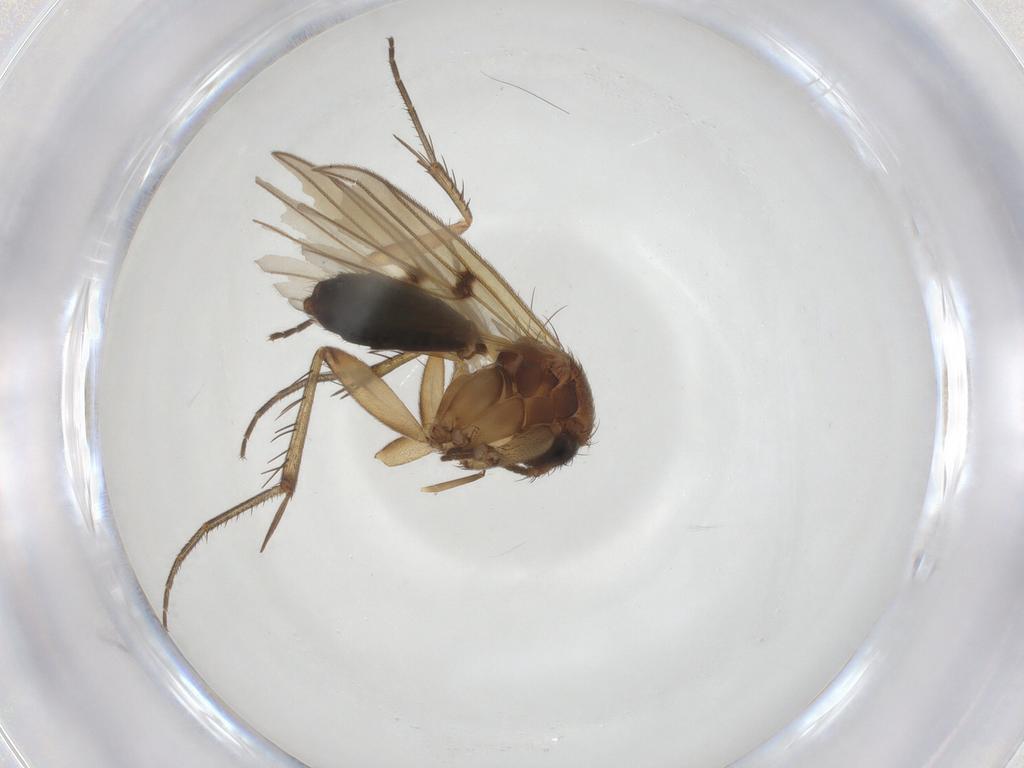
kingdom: Animalia
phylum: Arthropoda
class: Insecta
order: Diptera
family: Chironomidae
